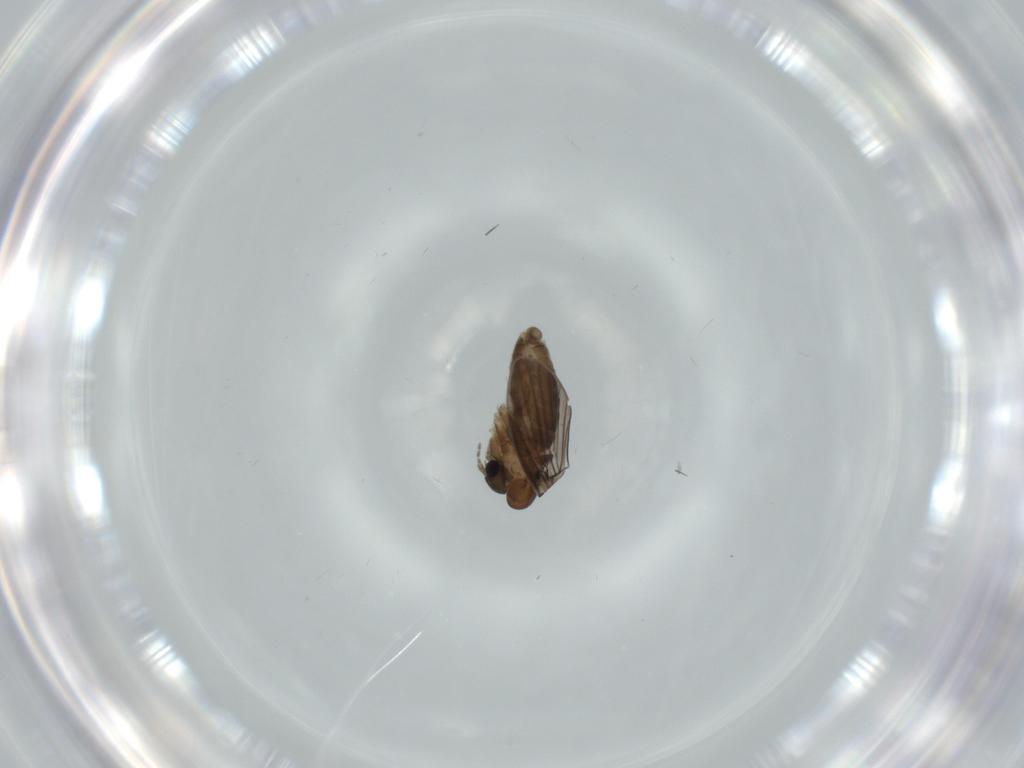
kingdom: Animalia
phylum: Arthropoda
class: Insecta
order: Diptera
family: Psychodidae
